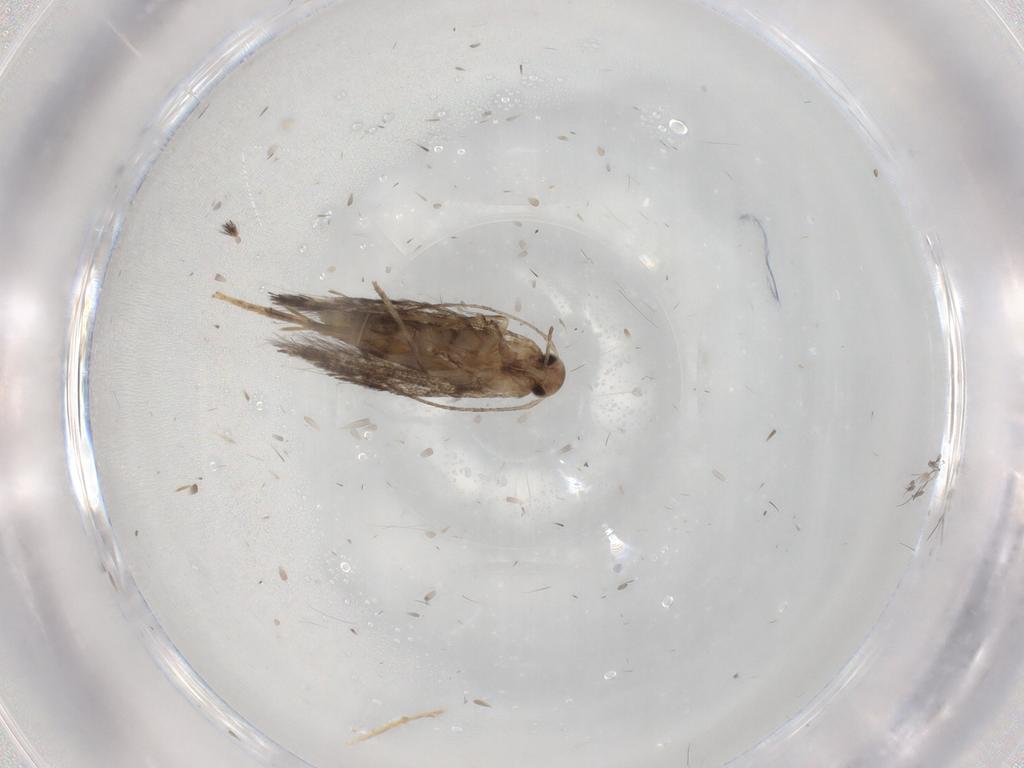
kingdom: Animalia
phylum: Arthropoda
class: Insecta
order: Lepidoptera
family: Elachistidae
